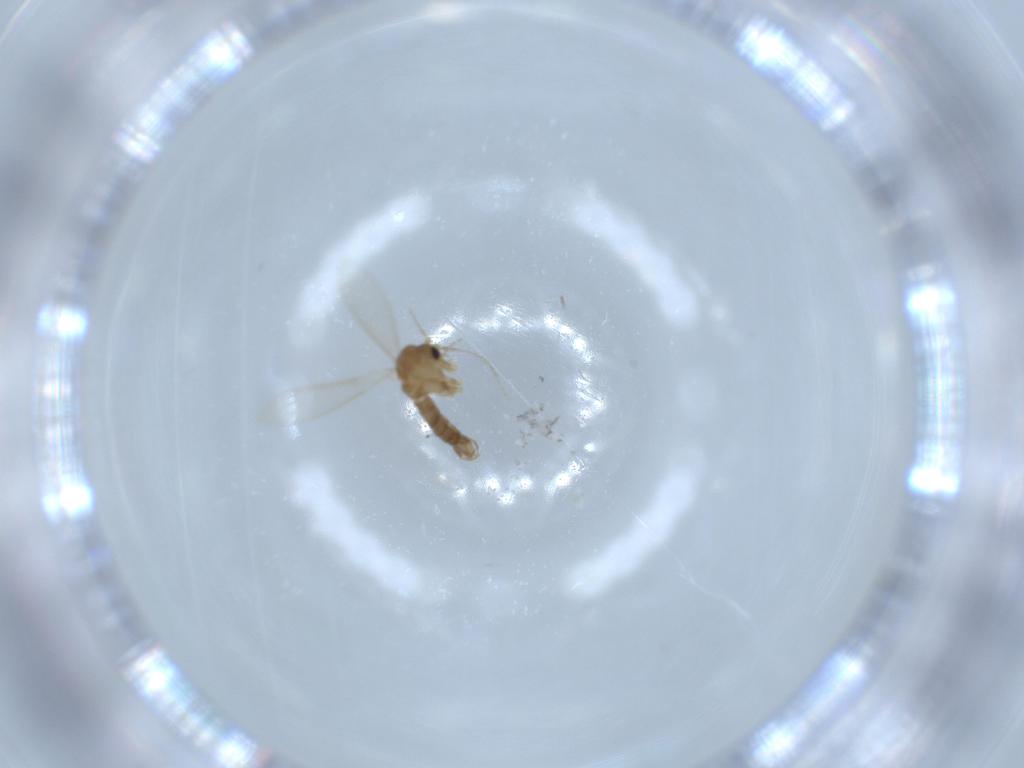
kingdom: Animalia
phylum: Arthropoda
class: Insecta
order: Diptera
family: Psychodidae
